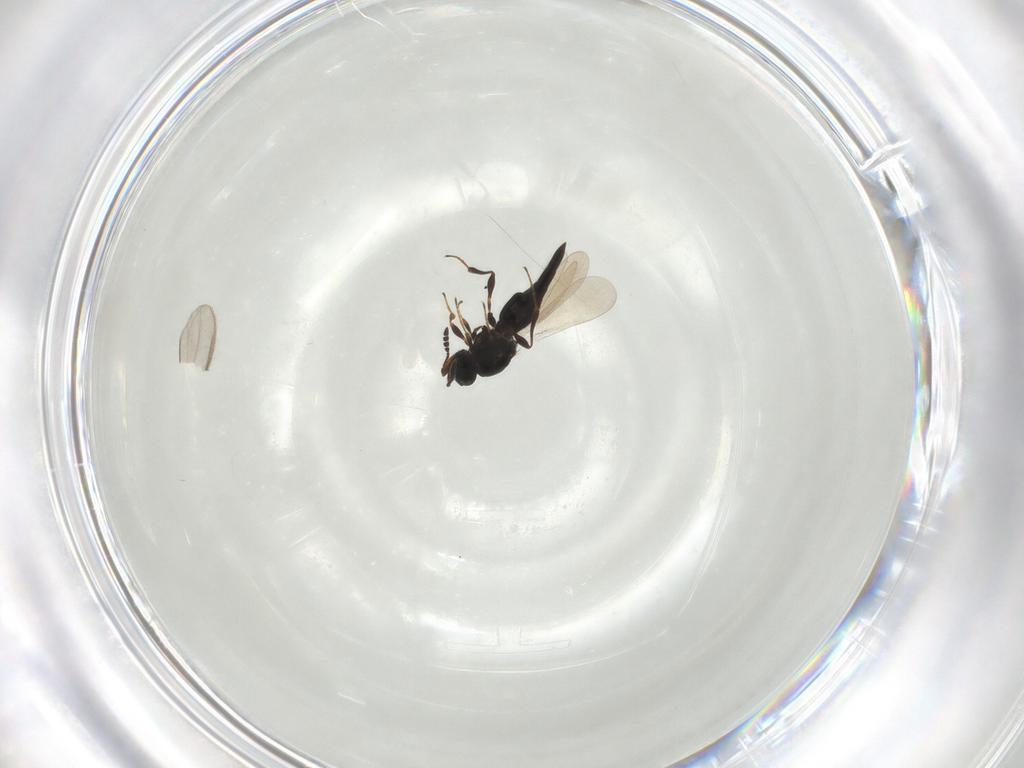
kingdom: Animalia
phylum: Arthropoda
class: Insecta
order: Hymenoptera
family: Platygastridae
